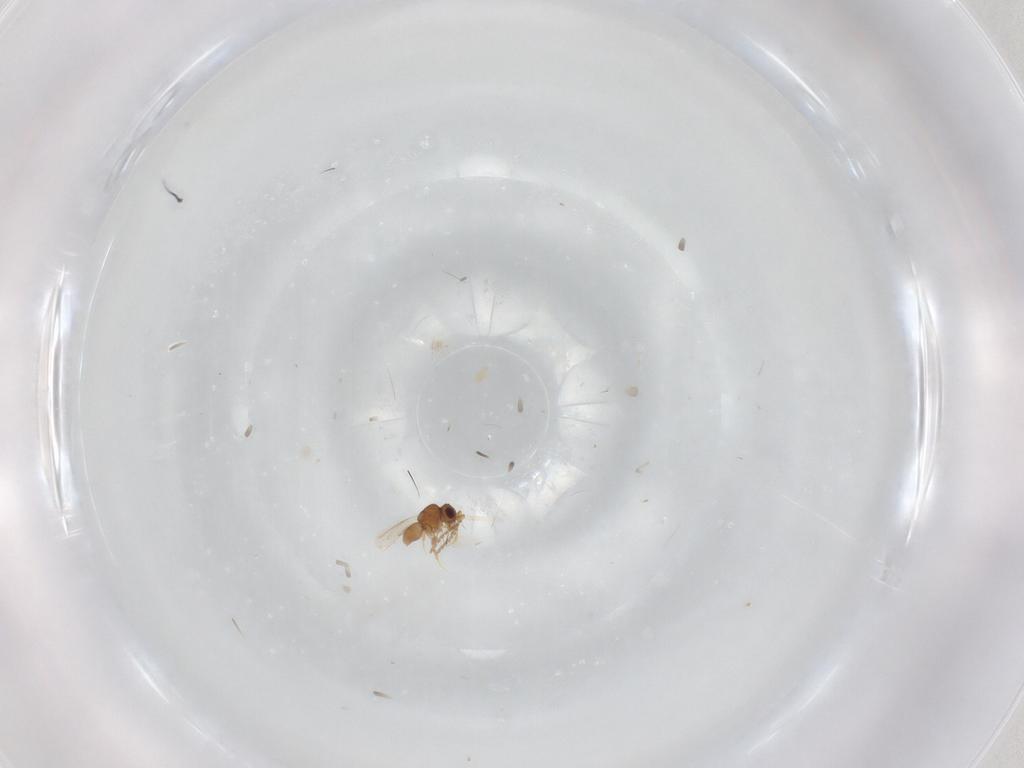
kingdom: Animalia
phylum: Arthropoda
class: Insecta
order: Hymenoptera
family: Ceraphronidae
